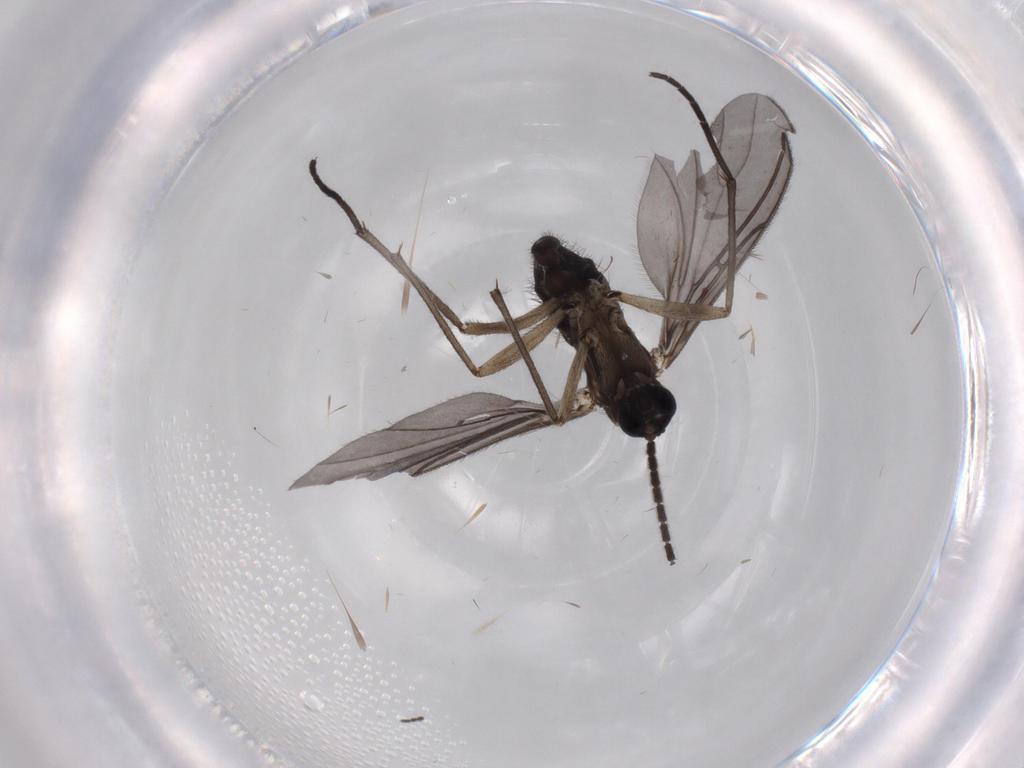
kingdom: Animalia
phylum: Arthropoda
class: Insecta
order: Diptera
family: Sciaridae
